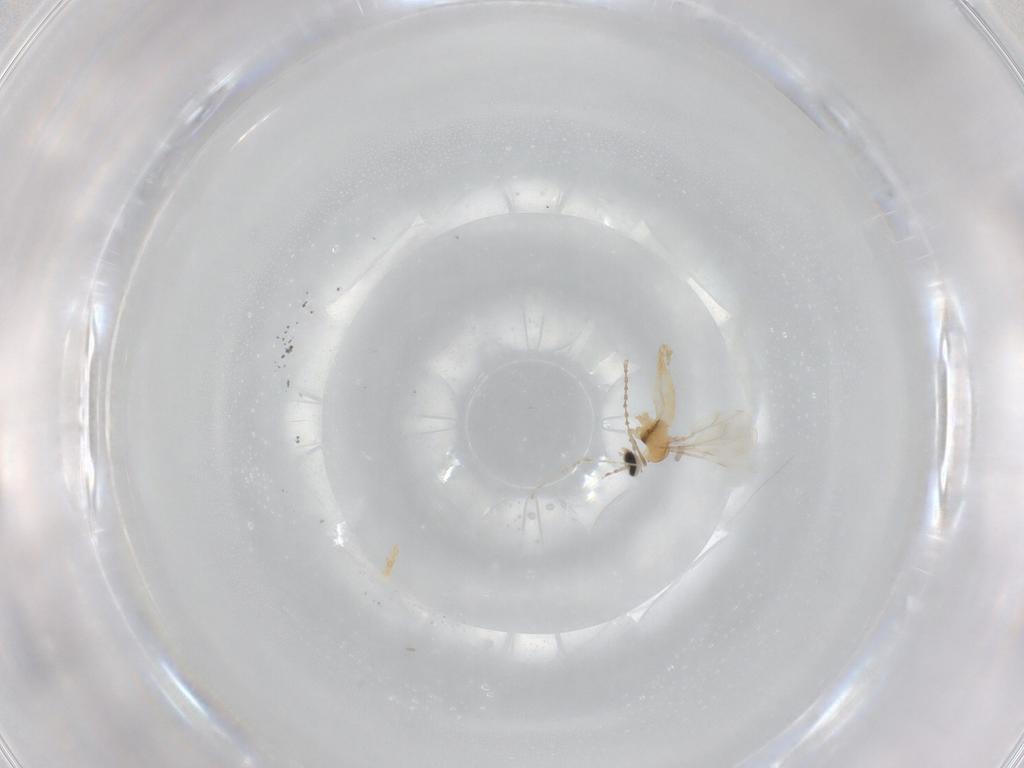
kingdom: Animalia
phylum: Arthropoda
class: Insecta
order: Diptera
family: Cecidomyiidae
